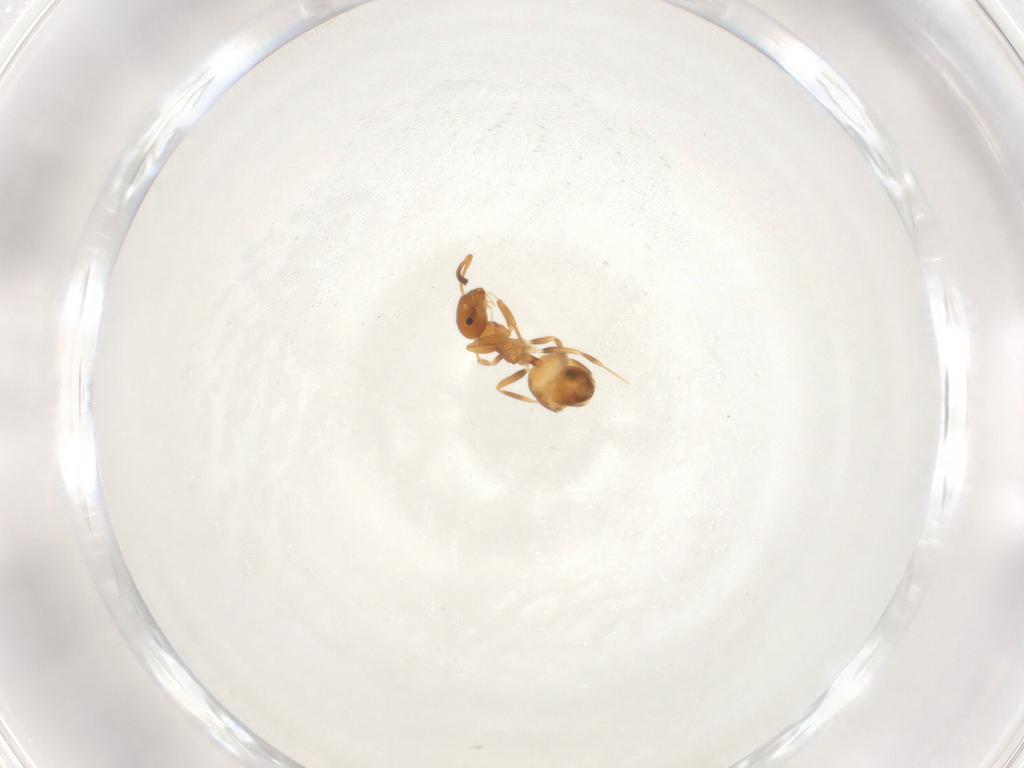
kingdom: Animalia
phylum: Arthropoda
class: Insecta
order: Hymenoptera
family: Formicidae
